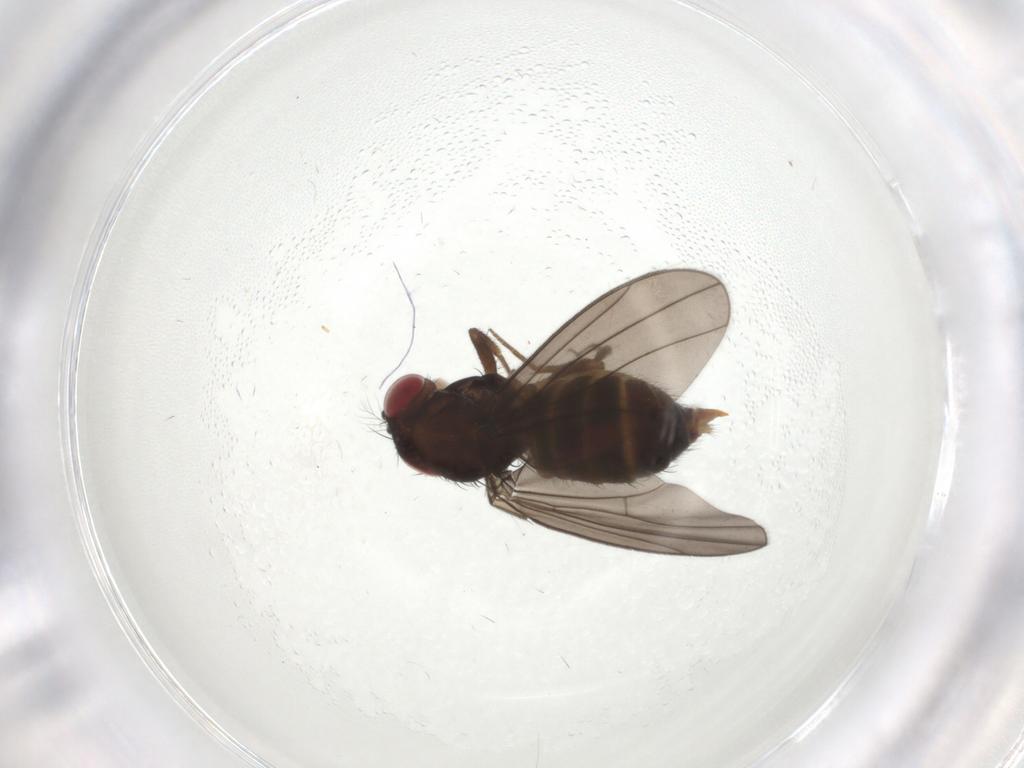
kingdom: Animalia
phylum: Arthropoda
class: Insecta
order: Diptera
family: Drosophilidae
